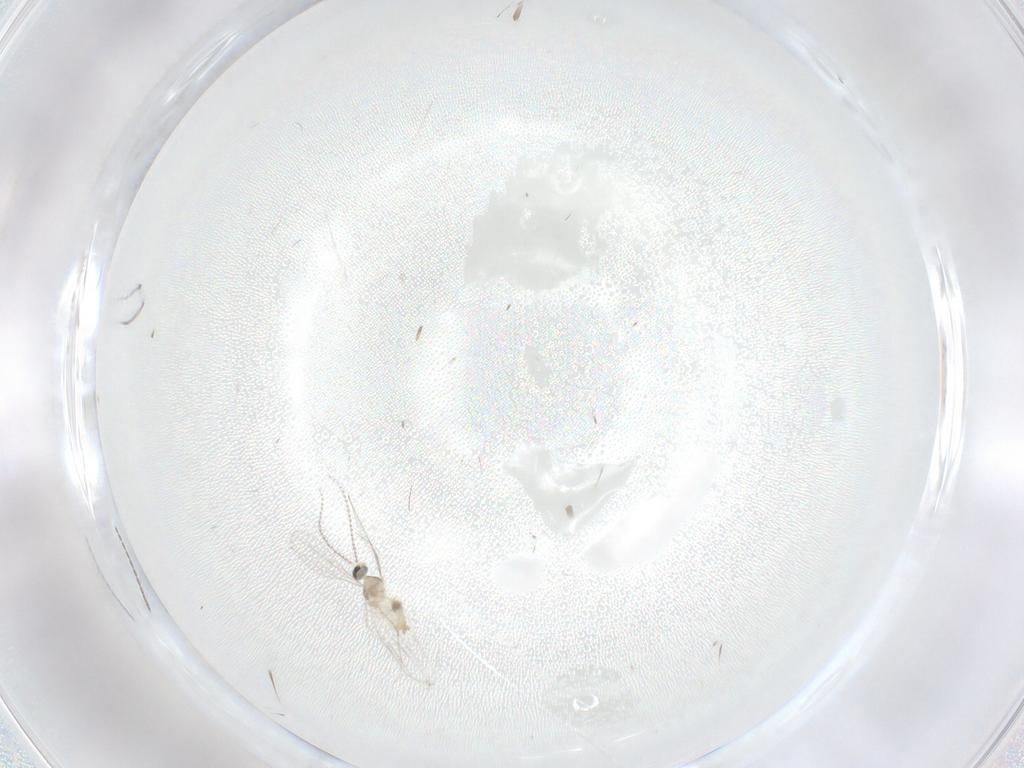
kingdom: Animalia
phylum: Arthropoda
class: Insecta
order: Diptera
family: Cecidomyiidae
